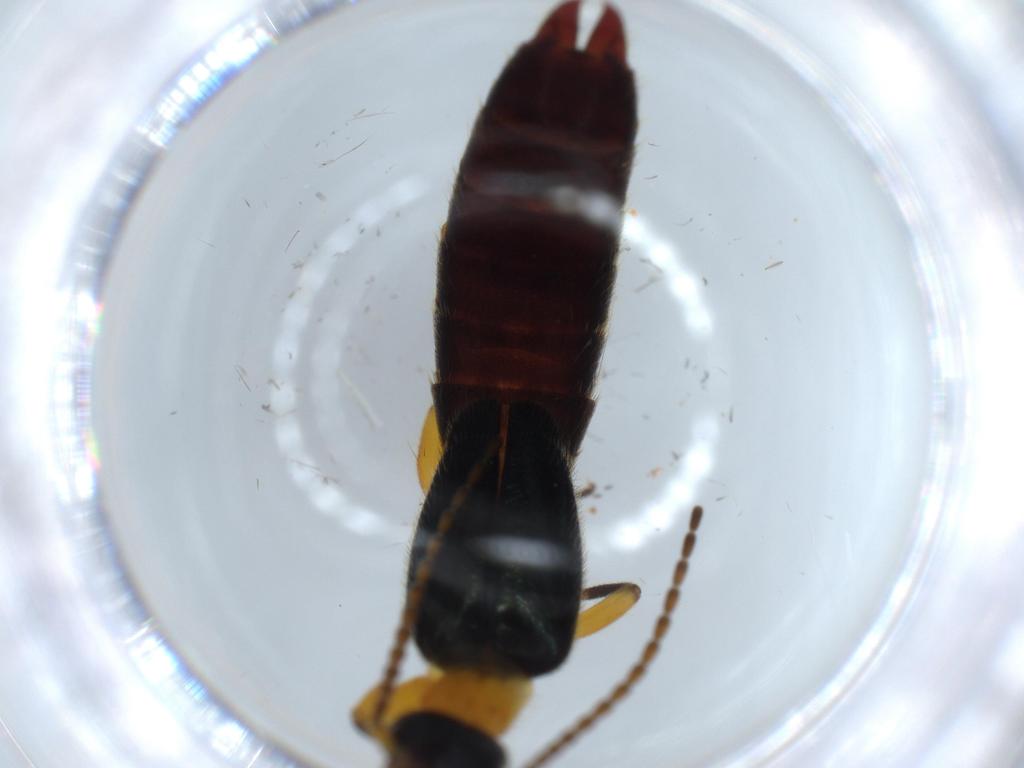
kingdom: Animalia
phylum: Arthropoda
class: Insecta
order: Dermaptera
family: Forficulidae
